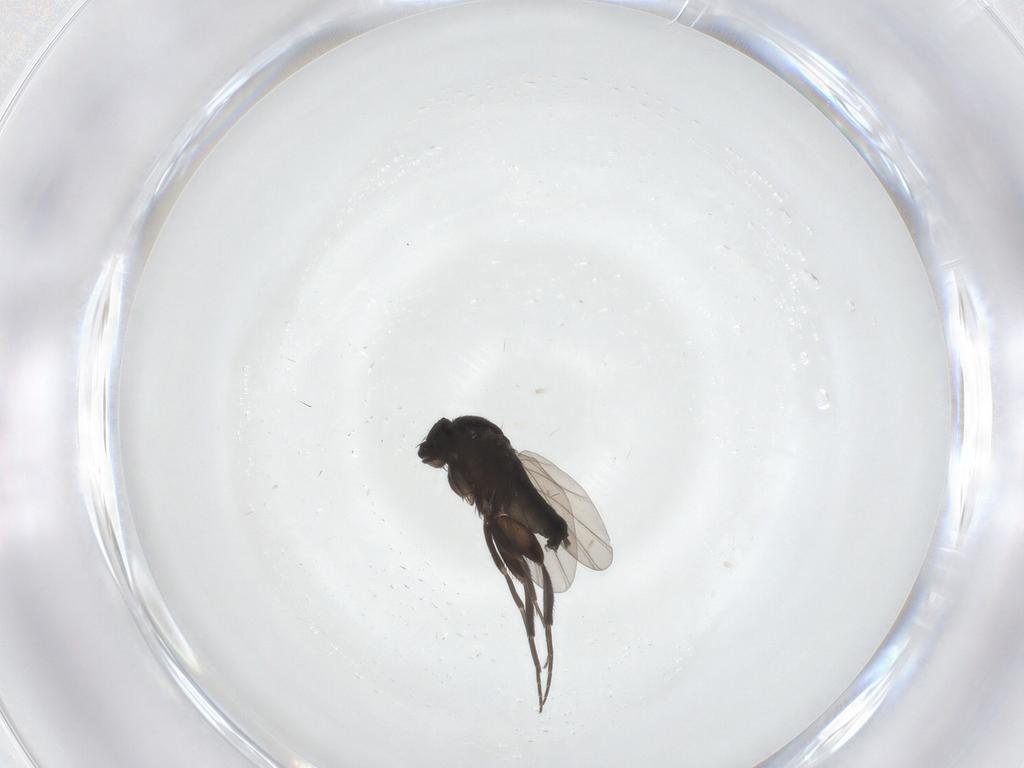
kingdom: Animalia
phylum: Arthropoda
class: Insecta
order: Diptera
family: Phoridae
